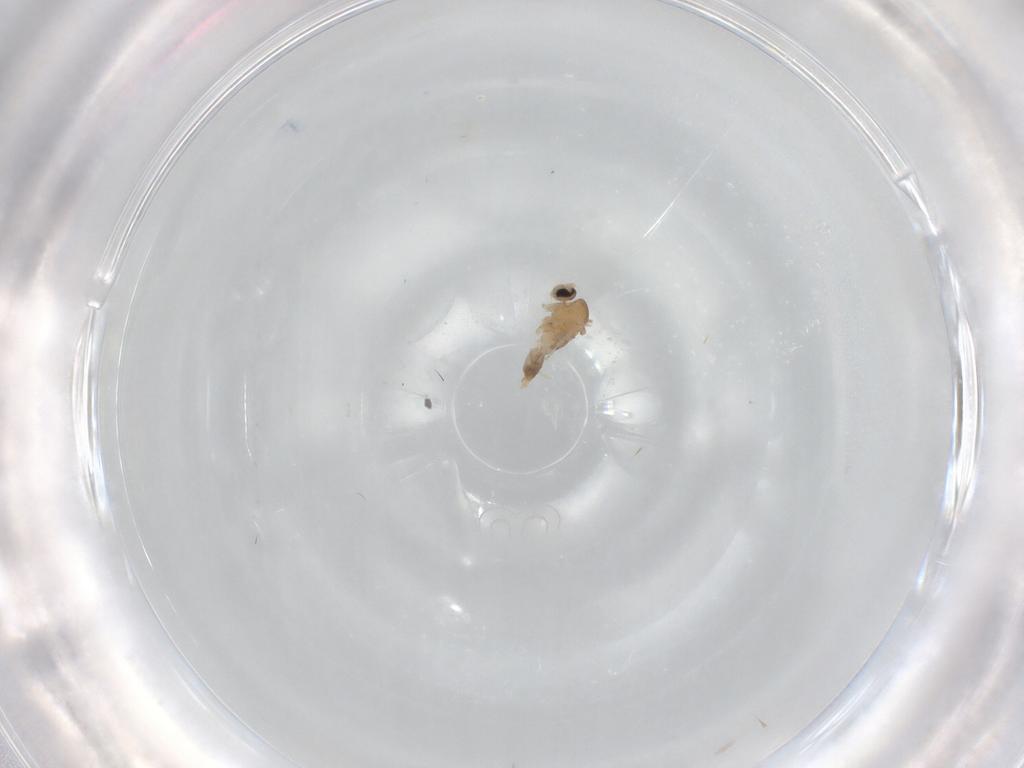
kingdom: Animalia
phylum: Arthropoda
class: Insecta
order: Diptera
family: Cecidomyiidae
